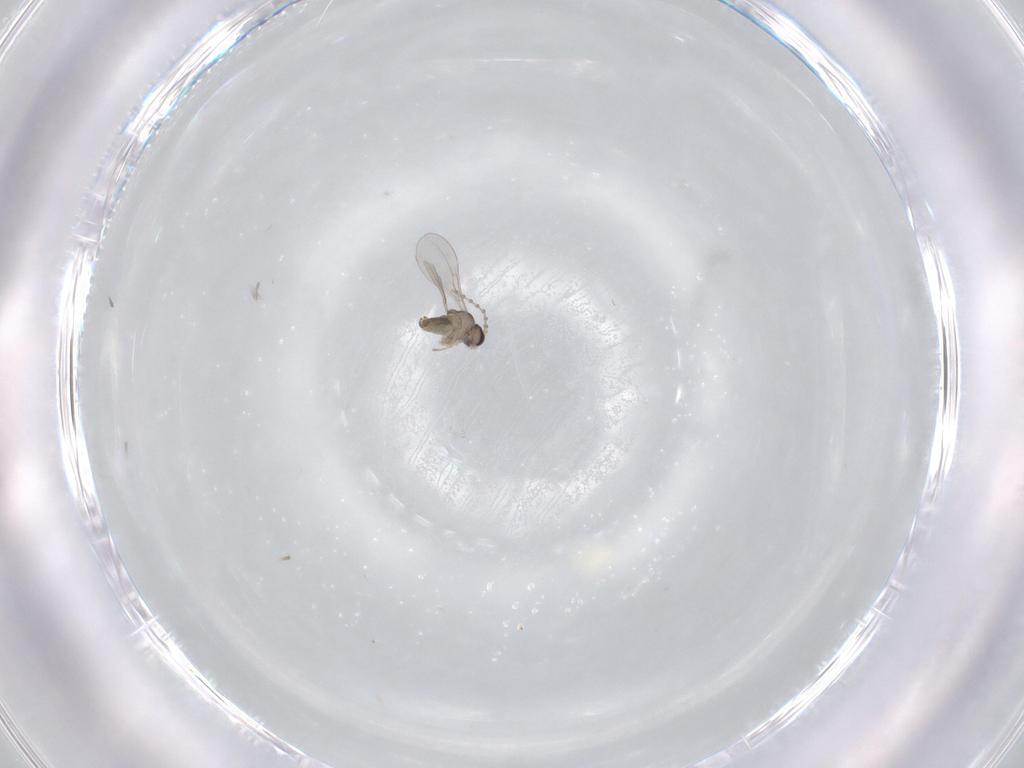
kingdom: Animalia
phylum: Arthropoda
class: Insecta
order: Diptera
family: Cecidomyiidae
